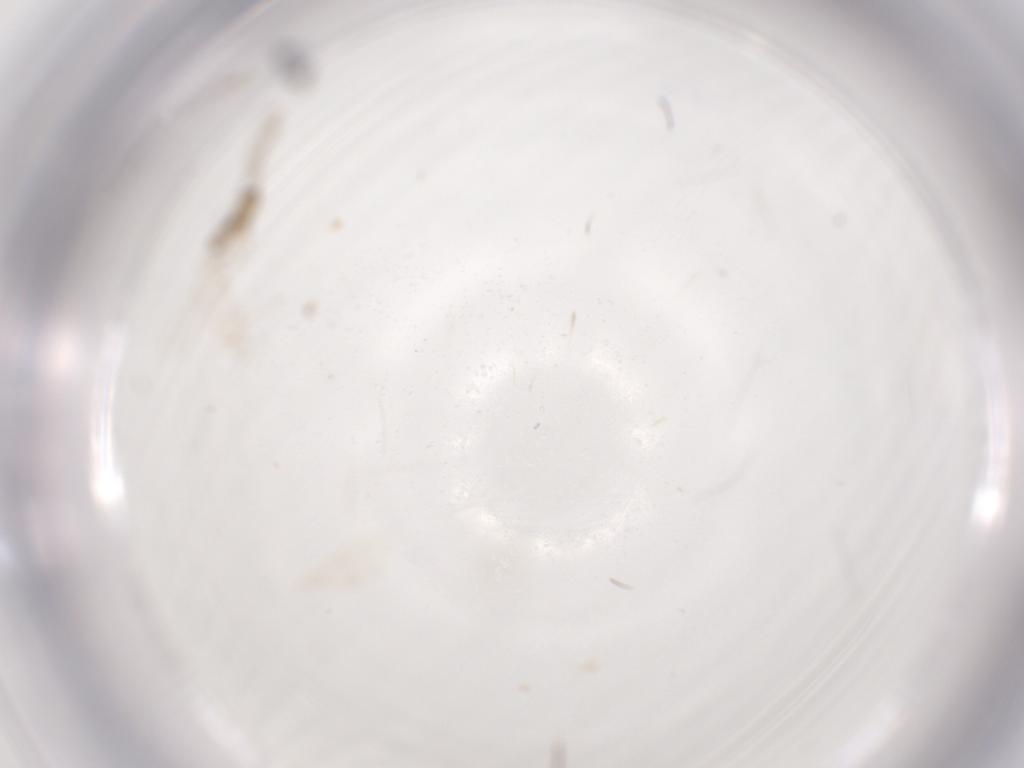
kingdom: Animalia
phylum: Arthropoda
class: Insecta
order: Diptera
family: Cecidomyiidae
